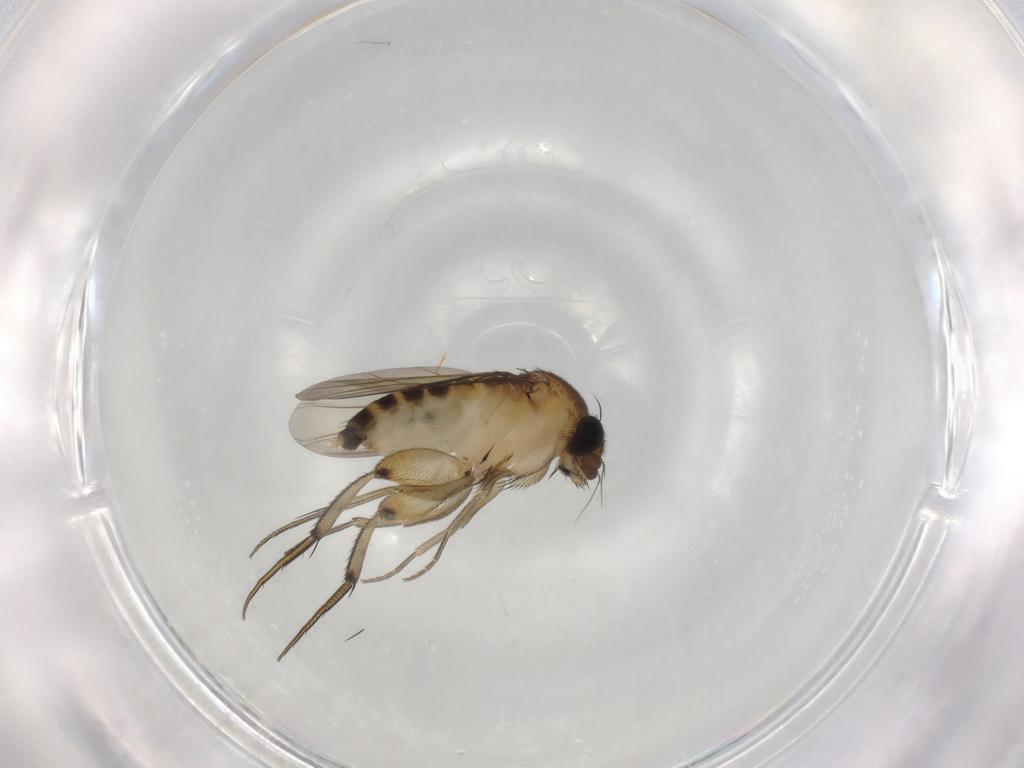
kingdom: Animalia
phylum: Arthropoda
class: Insecta
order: Diptera
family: Phoridae
